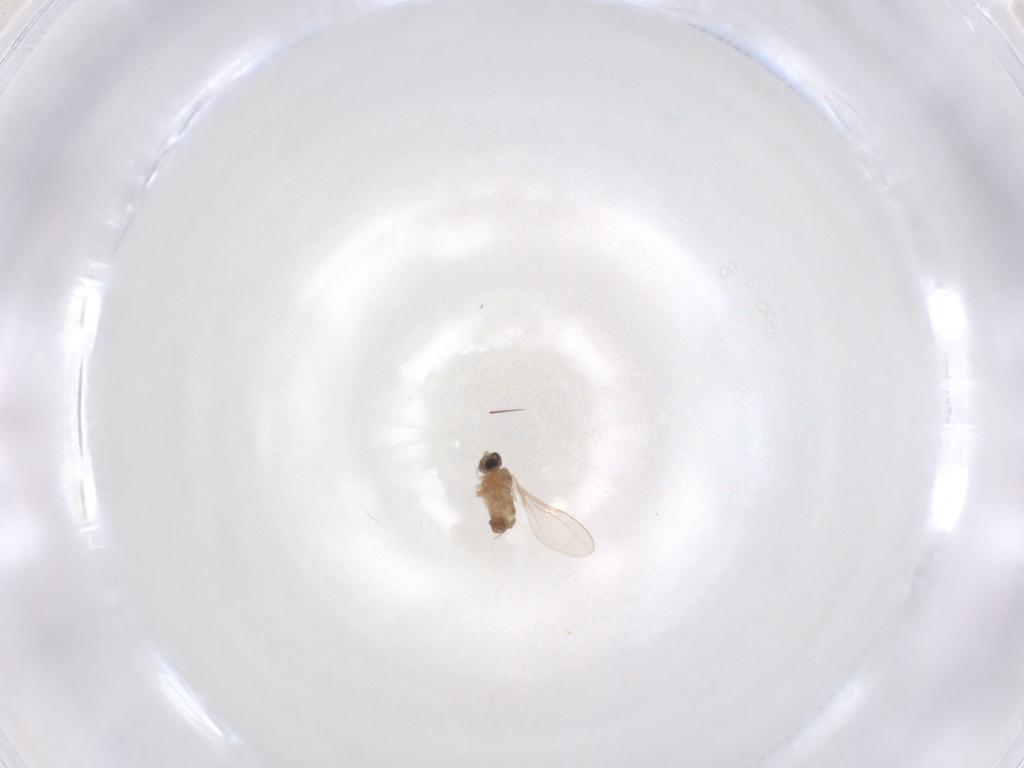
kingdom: Animalia
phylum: Arthropoda
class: Insecta
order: Diptera
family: Cecidomyiidae
